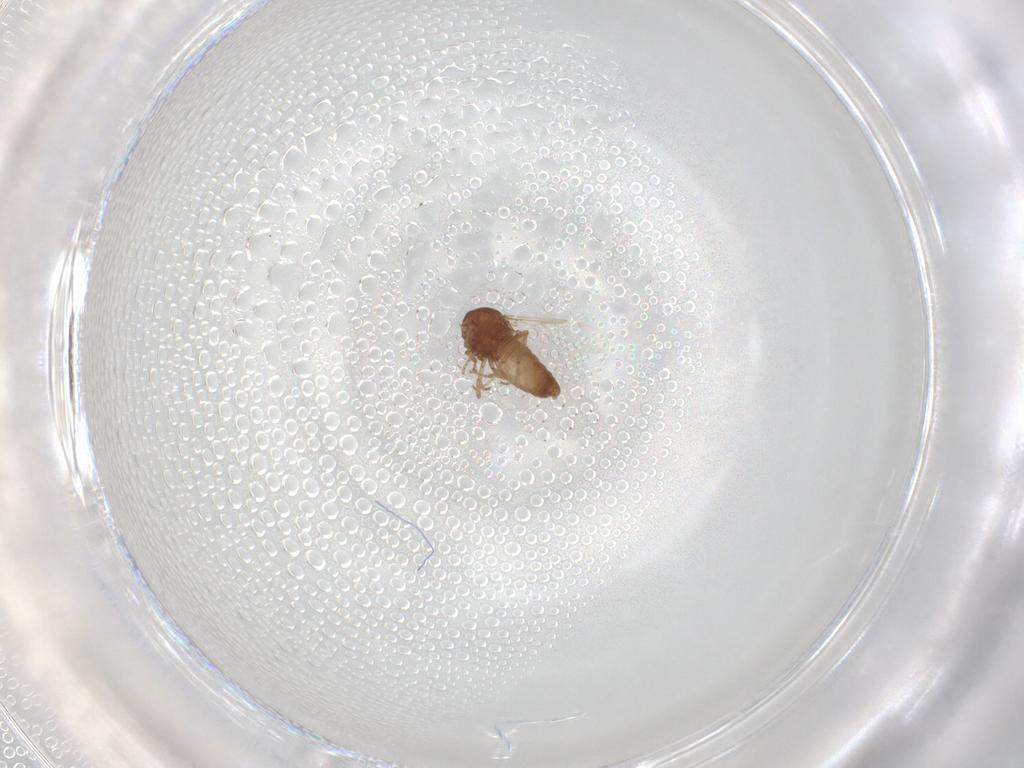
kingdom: Animalia
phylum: Arthropoda
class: Insecta
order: Diptera
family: Muscidae
